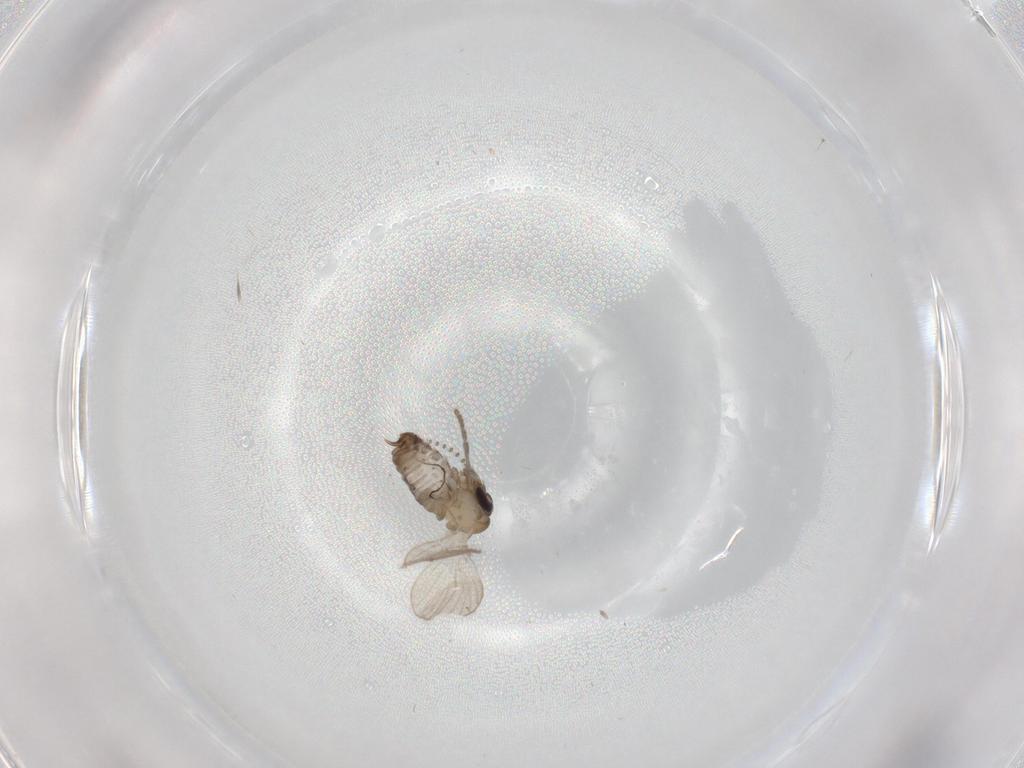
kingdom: Animalia
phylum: Arthropoda
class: Insecta
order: Diptera
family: Psychodidae
